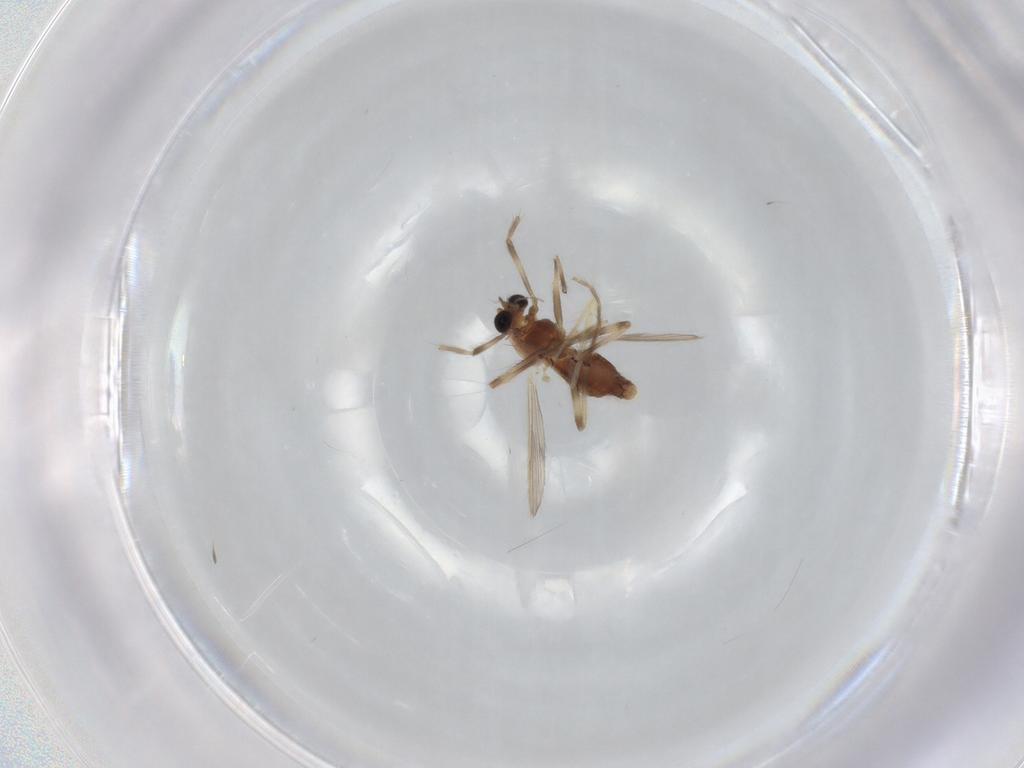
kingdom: Animalia
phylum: Arthropoda
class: Insecta
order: Diptera
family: Chironomidae
